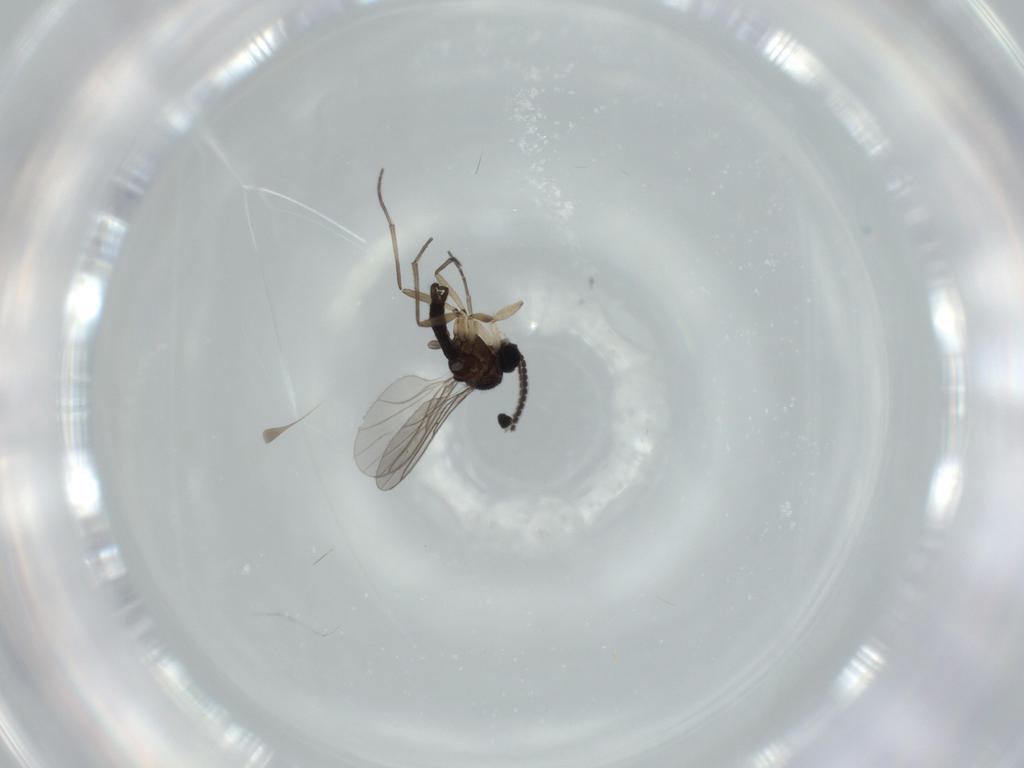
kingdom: Animalia
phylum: Arthropoda
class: Insecta
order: Diptera
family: Sciaridae
